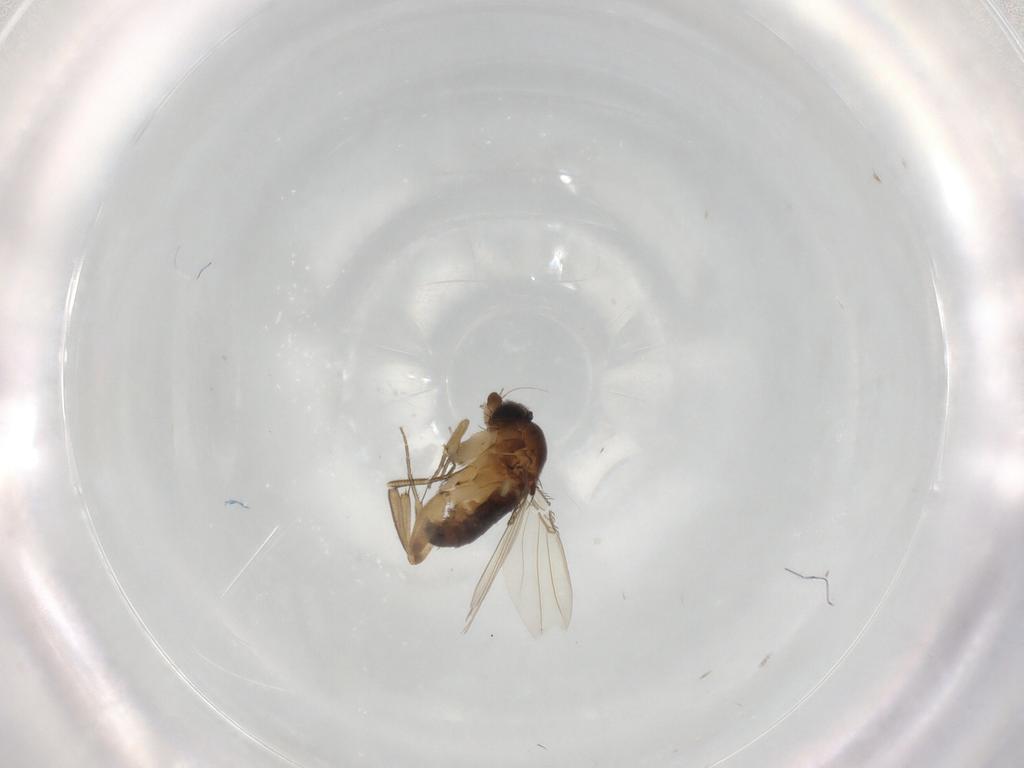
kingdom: Animalia
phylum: Arthropoda
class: Insecta
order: Diptera
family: Phoridae
